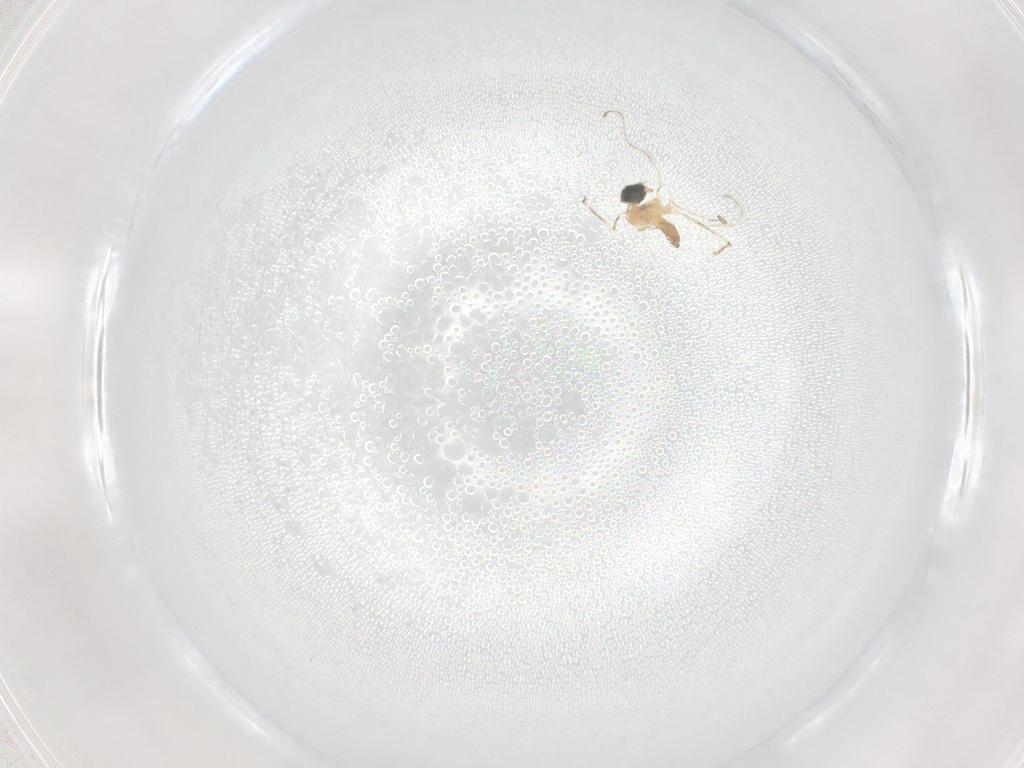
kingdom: Animalia
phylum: Arthropoda
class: Insecta
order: Diptera
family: Cecidomyiidae
